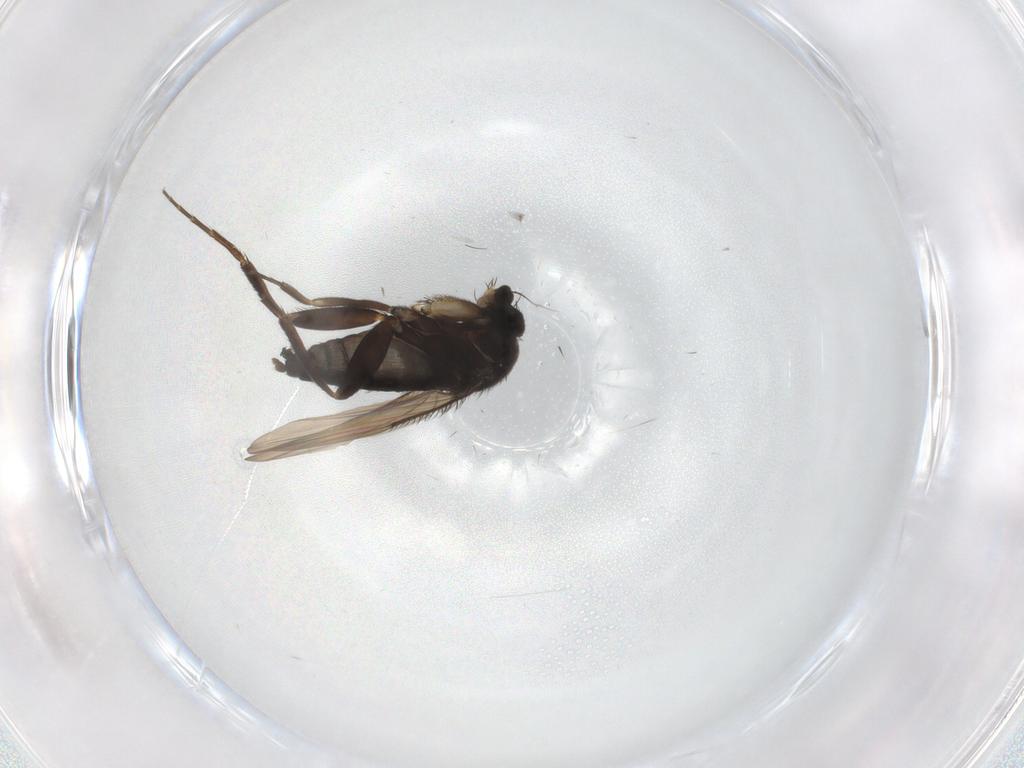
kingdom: Animalia
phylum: Arthropoda
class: Insecta
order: Diptera
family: Phoridae
